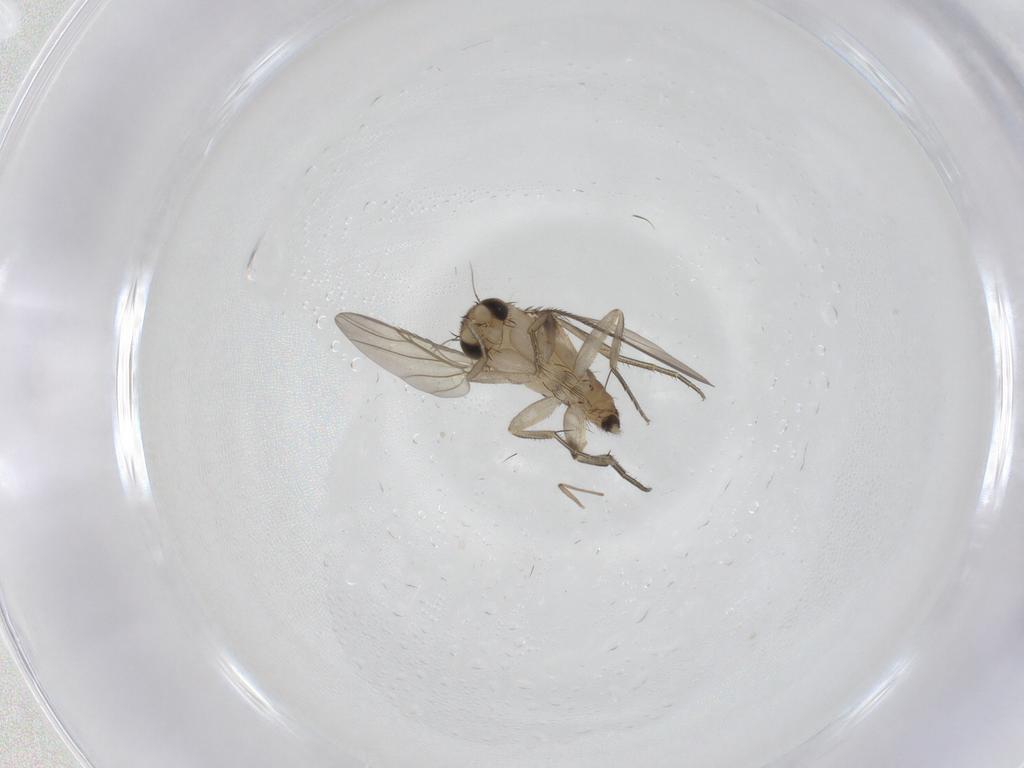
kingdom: Animalia
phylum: Arthropoda
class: Insecta
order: Diptera
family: Phoridae
